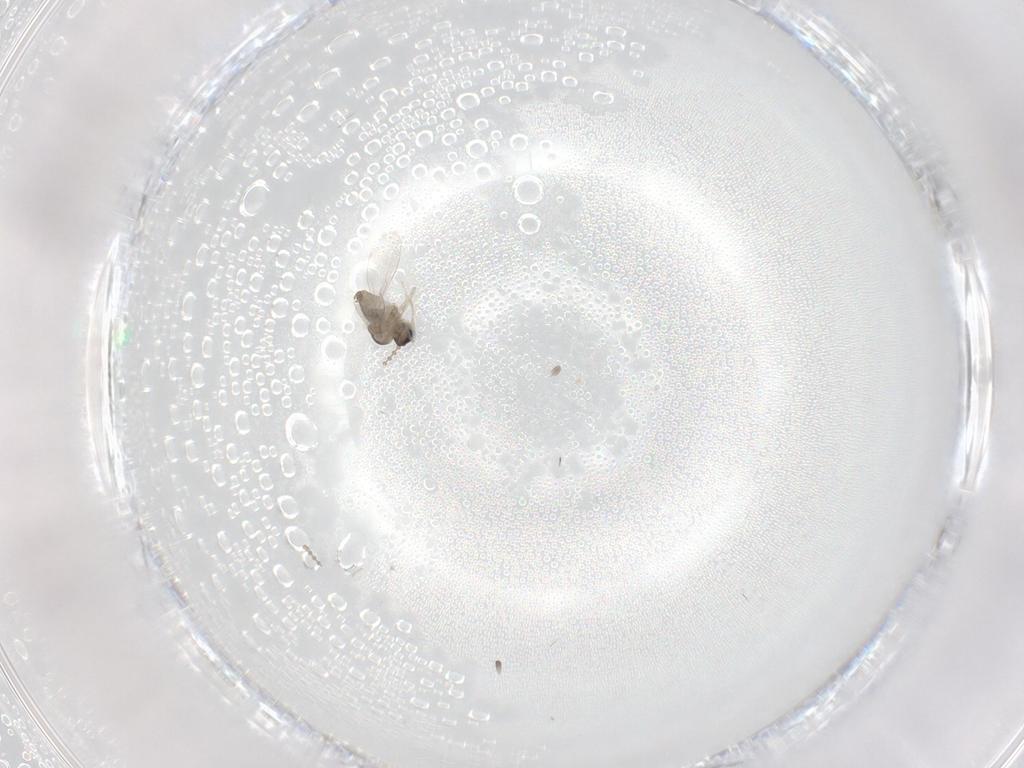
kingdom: Animalia
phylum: Arthropoda
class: Insecta
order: Diptera
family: Cecidomyiidae
